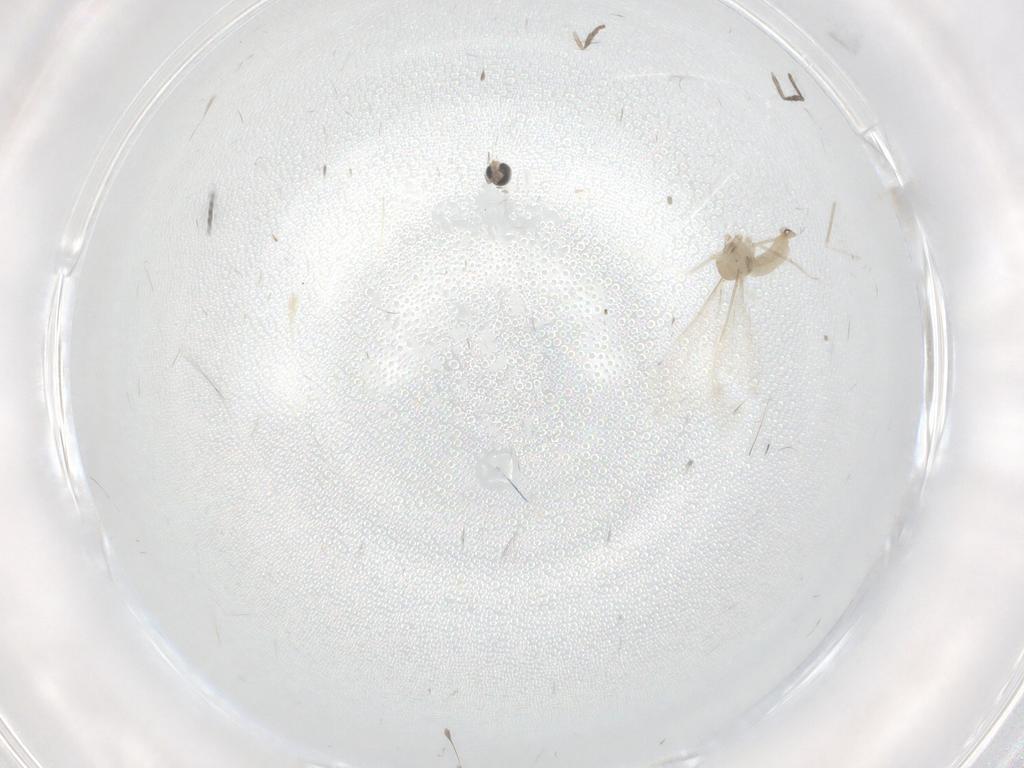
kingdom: Animalia
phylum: Arthropoda
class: Insecta
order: Diptera
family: Cecidomyiidae
